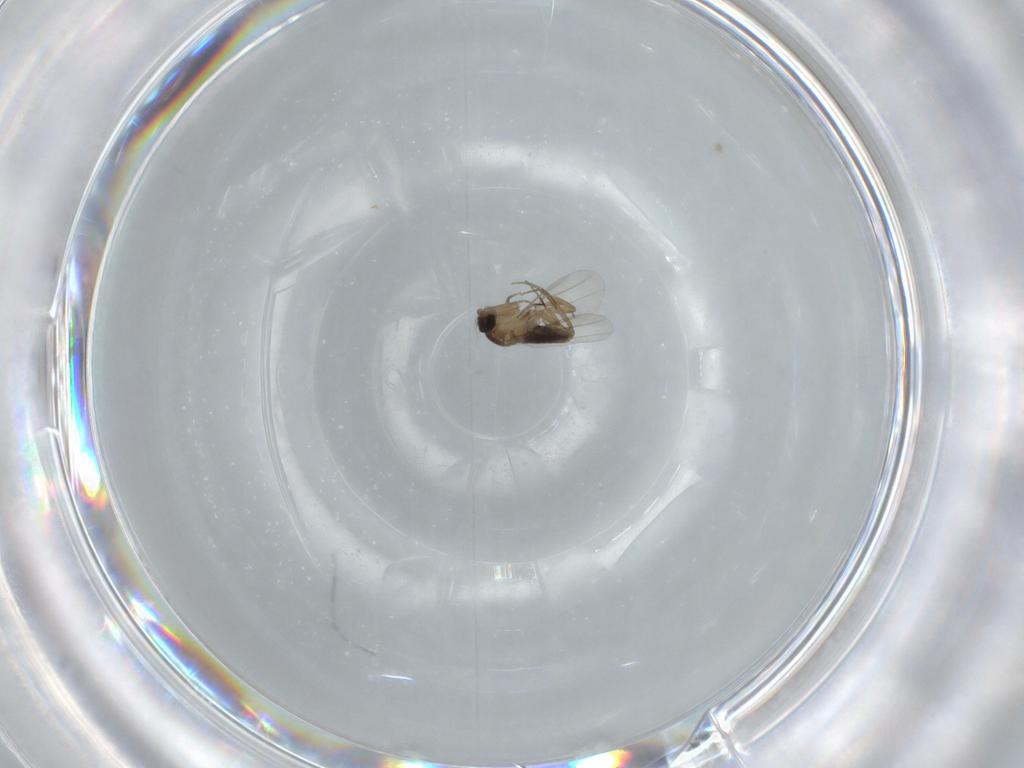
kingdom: Animalia
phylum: Arthropoda
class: Insecta
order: Diptera
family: Phoridae
